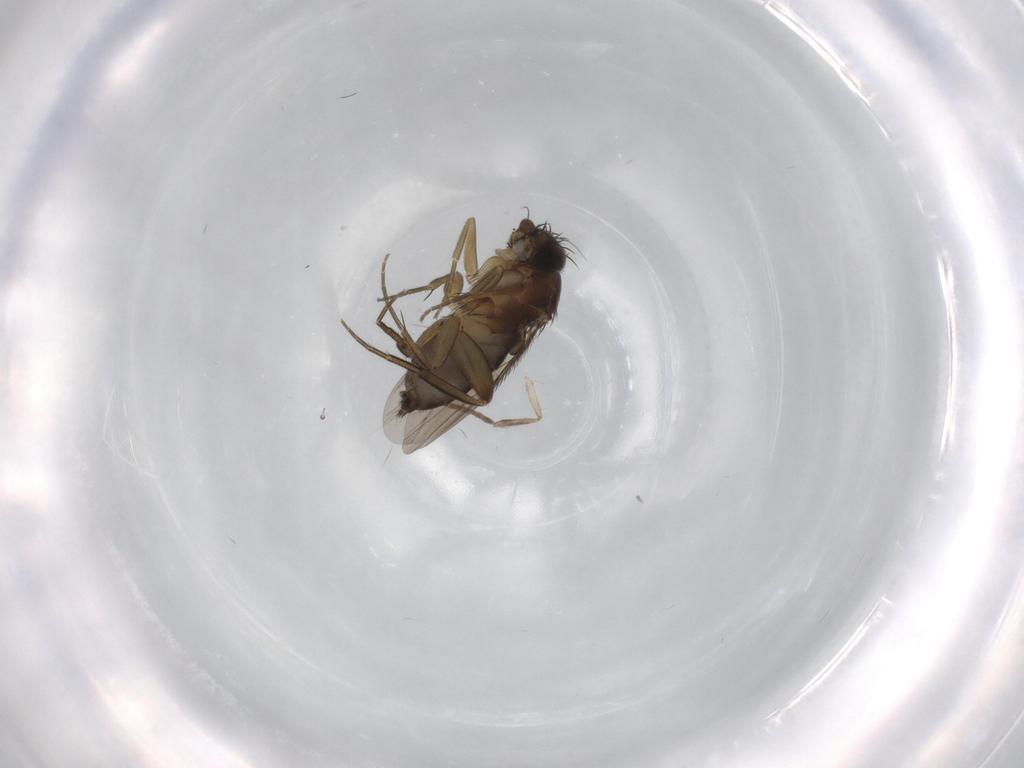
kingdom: Animalia
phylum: Arthropoda
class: Insecta
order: Diptera
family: Phoridae
